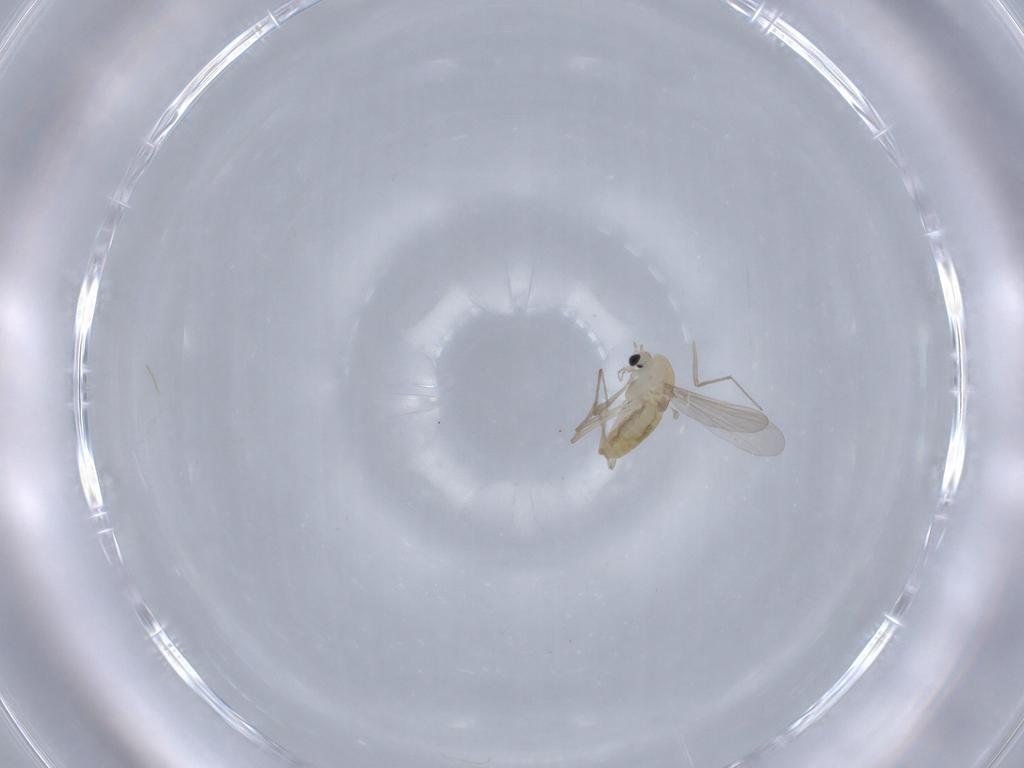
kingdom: Animalia
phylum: Arthropoda
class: Insecta
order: Diptera
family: Chironomidae
